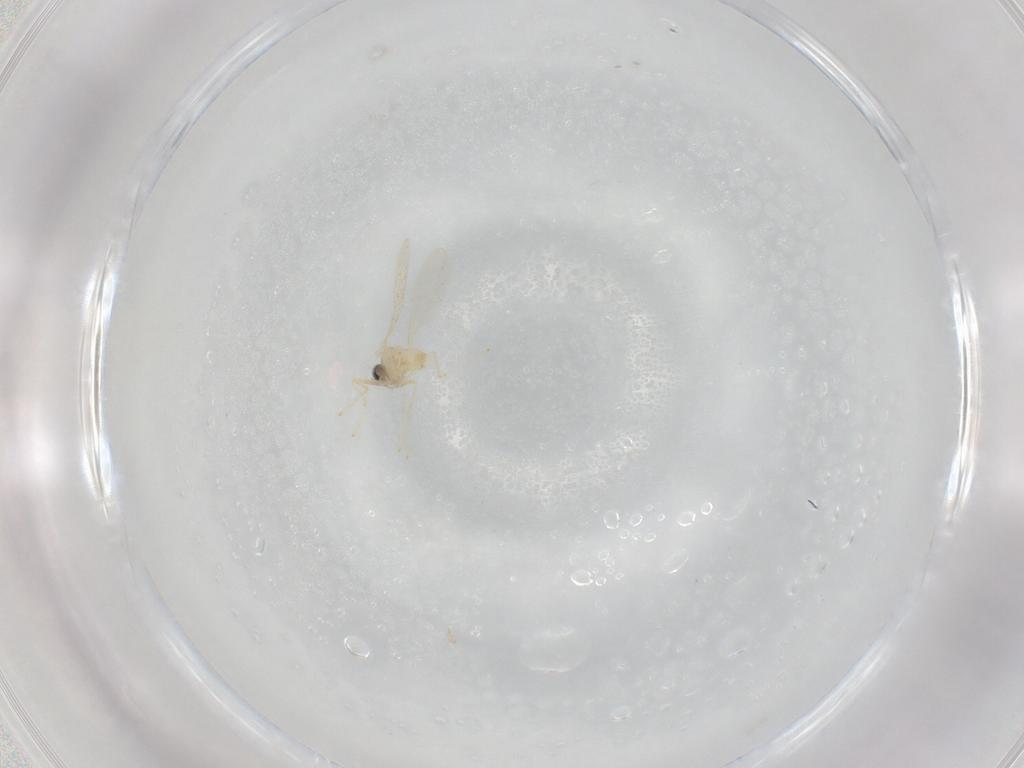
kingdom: Animalia
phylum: Arthropoda
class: Insecta
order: Diptera
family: Cecidomyiidae
